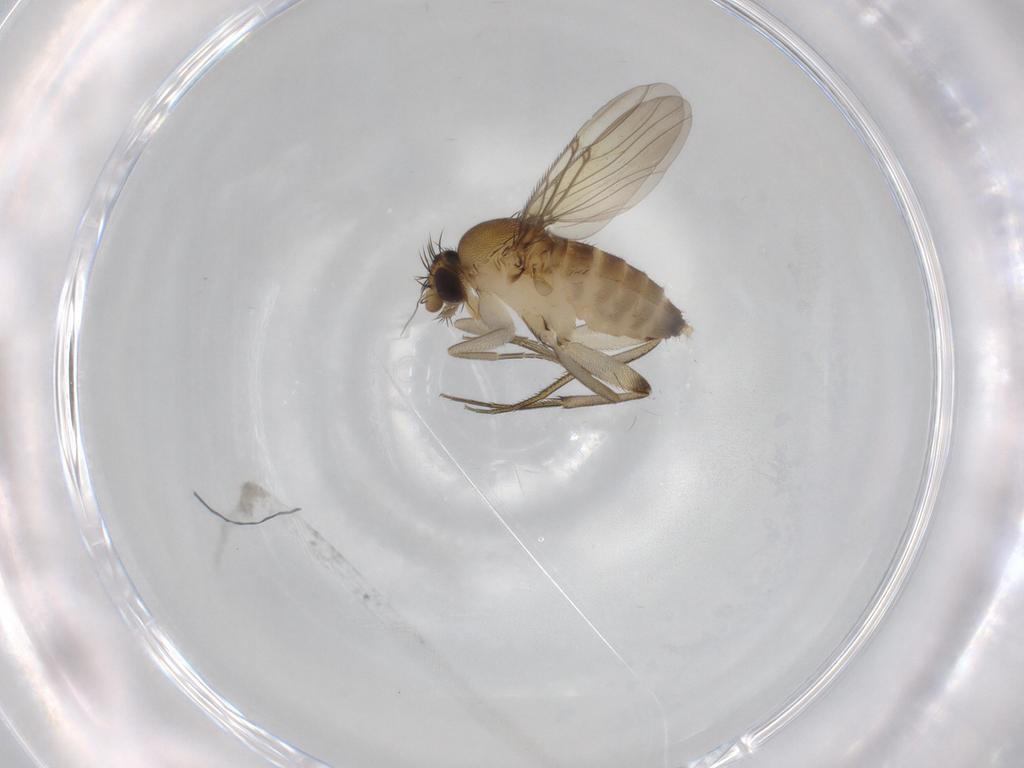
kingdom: Animalia
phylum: Arthropoda
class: Insecta
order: Diptera
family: Phoridae
